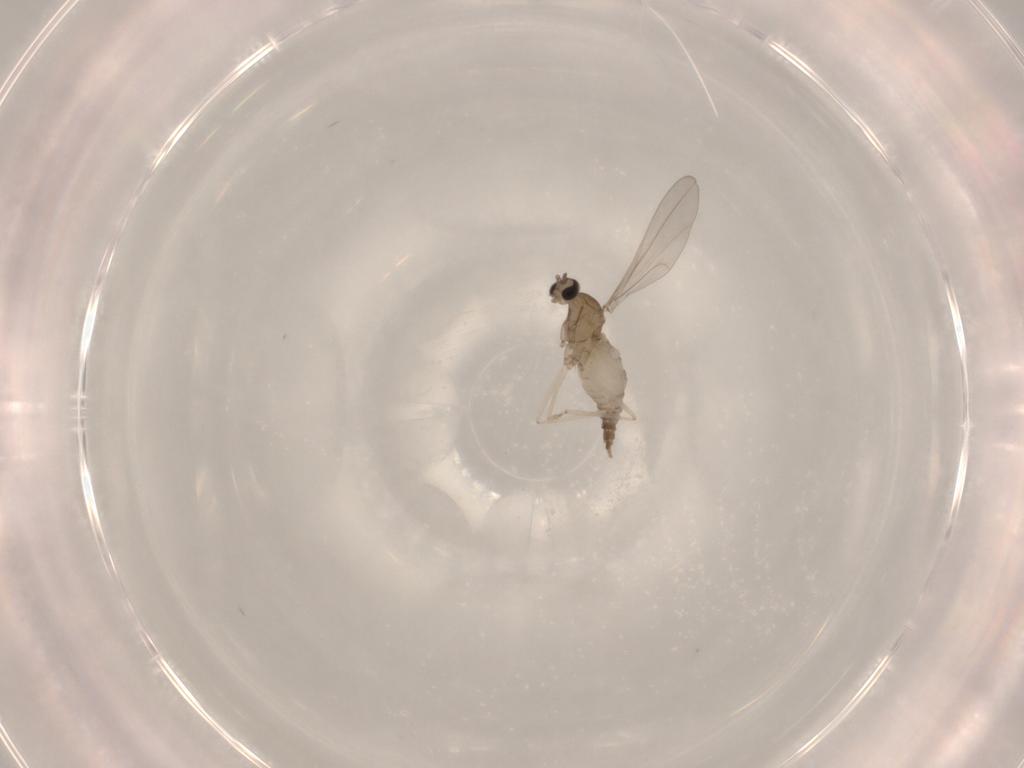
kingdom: Animalia
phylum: Arthropoda
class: Insecta
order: Diptera
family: Cecidomyiidae
